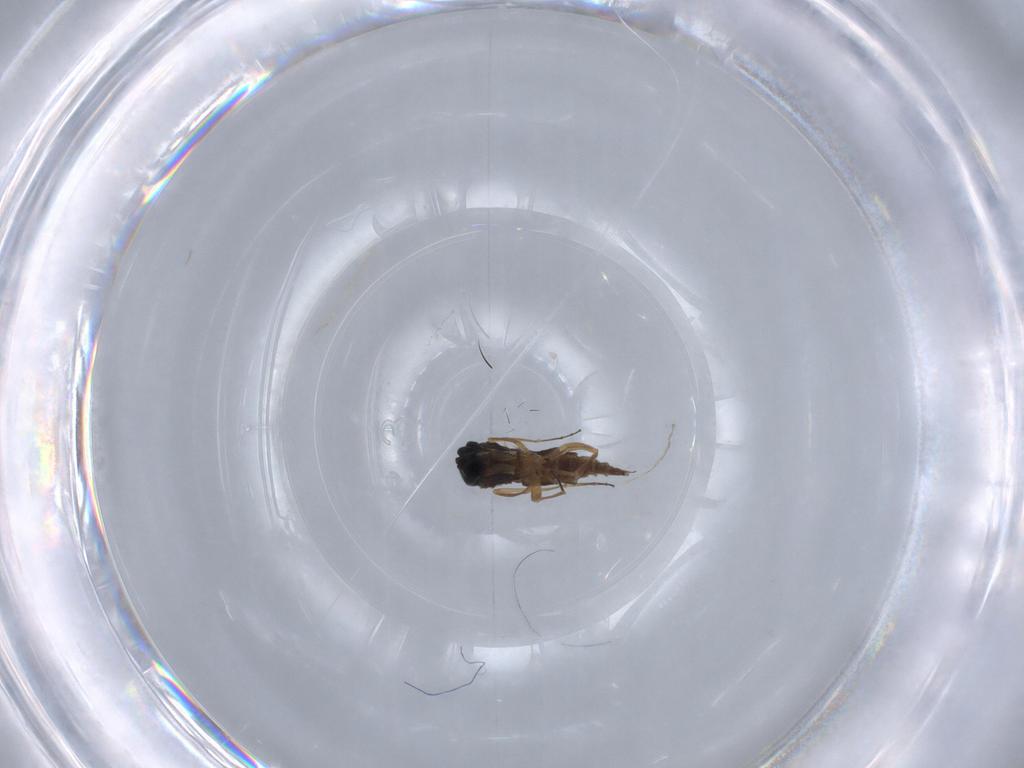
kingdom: Animalia
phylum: Arthropoda
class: Insecta
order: Diptera
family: Sciaridae
